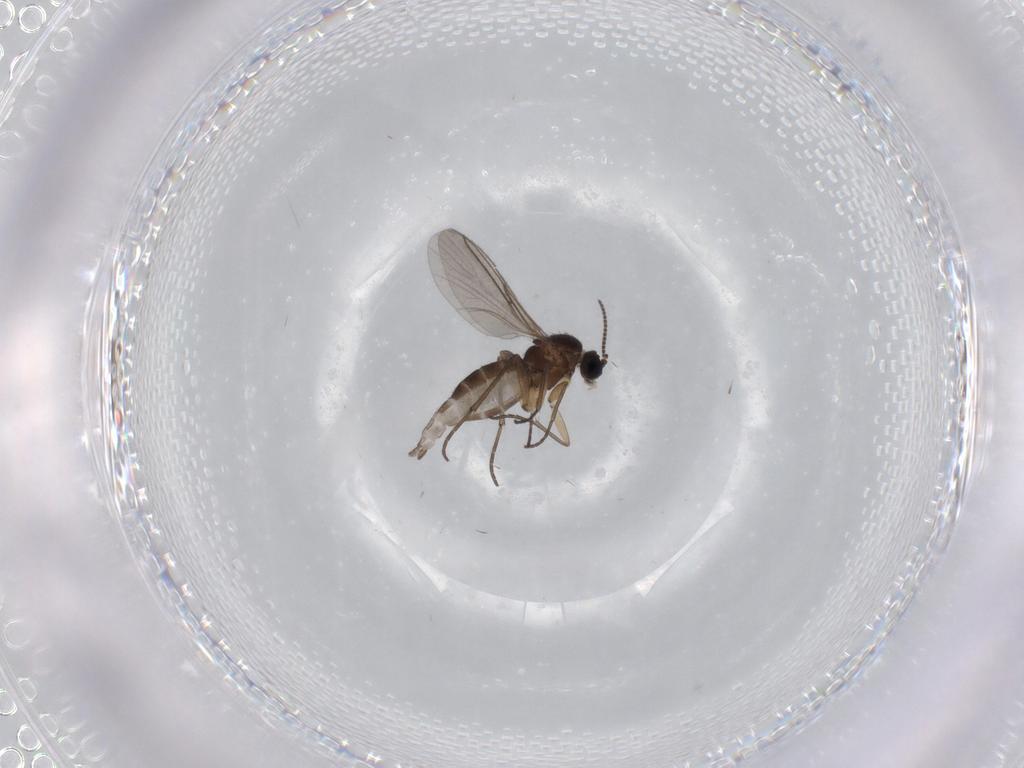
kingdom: Animalia
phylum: Arthropoda
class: Insecta
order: Diptera
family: Sciaridae
